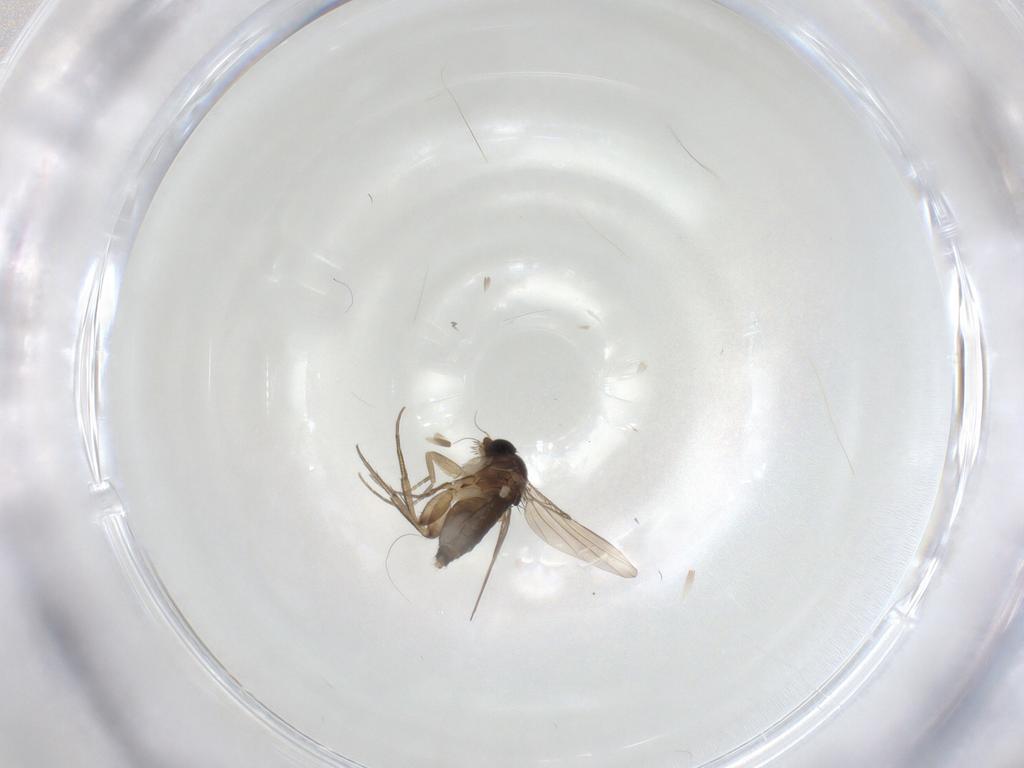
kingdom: Animalia
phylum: Arthropoda
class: Insecta
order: Diptera
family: Phoridae
